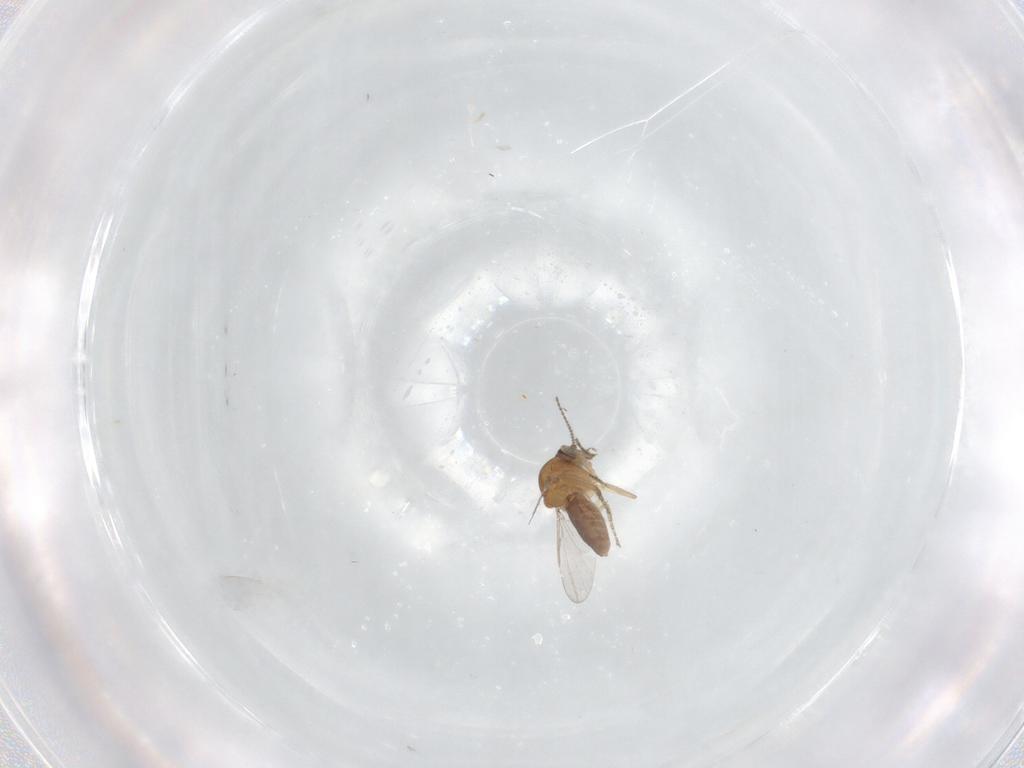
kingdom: Animalia
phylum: Arthropoda
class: Insecta
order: Diptera
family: Ceratopogonidae
